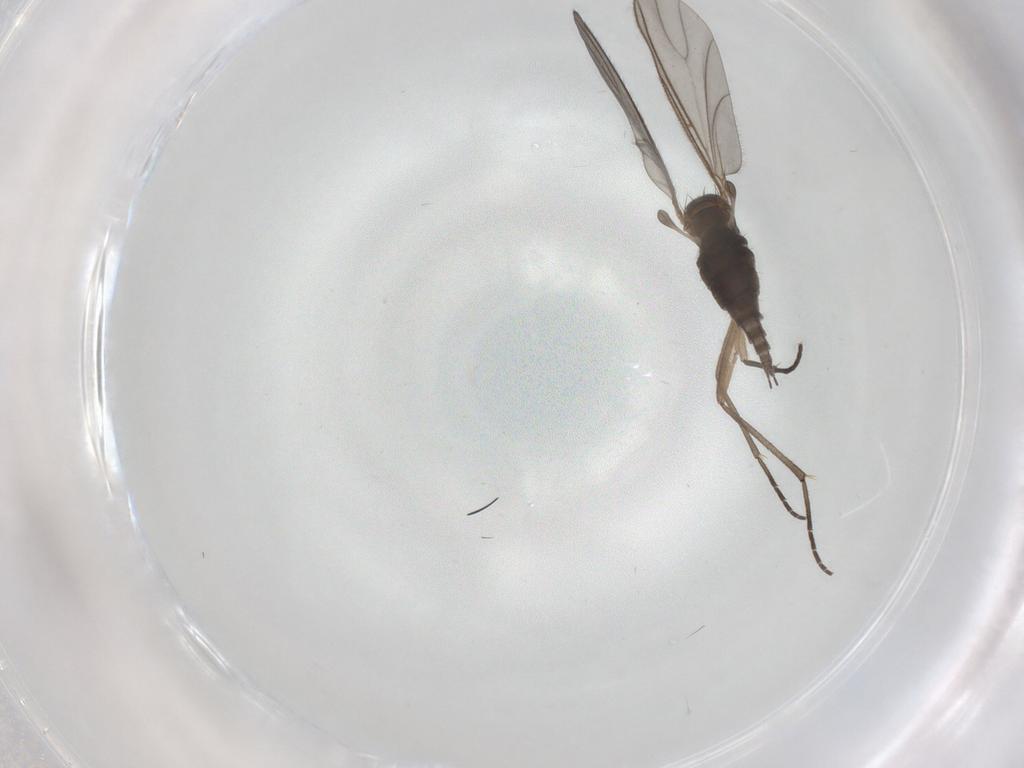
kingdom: Animalia
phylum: Arthropoda
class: Insecta
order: Diptera
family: Sciaridae
